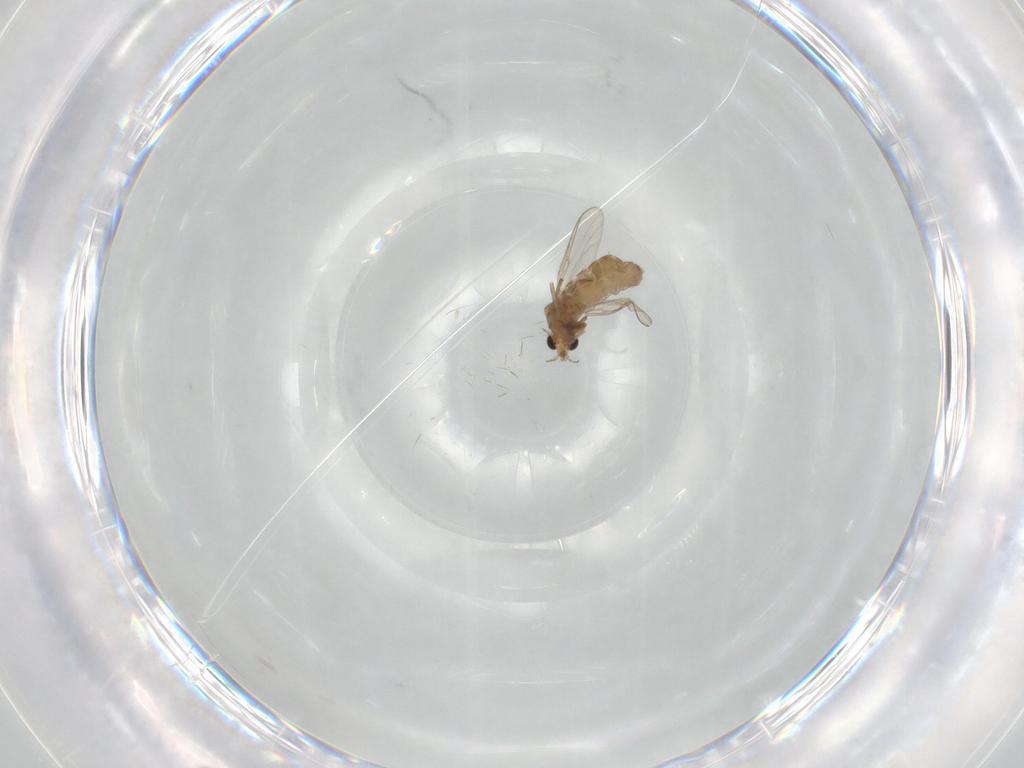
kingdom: Animalia
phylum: Arthropoda
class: Insecta
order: Diptera
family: Chironomidae
